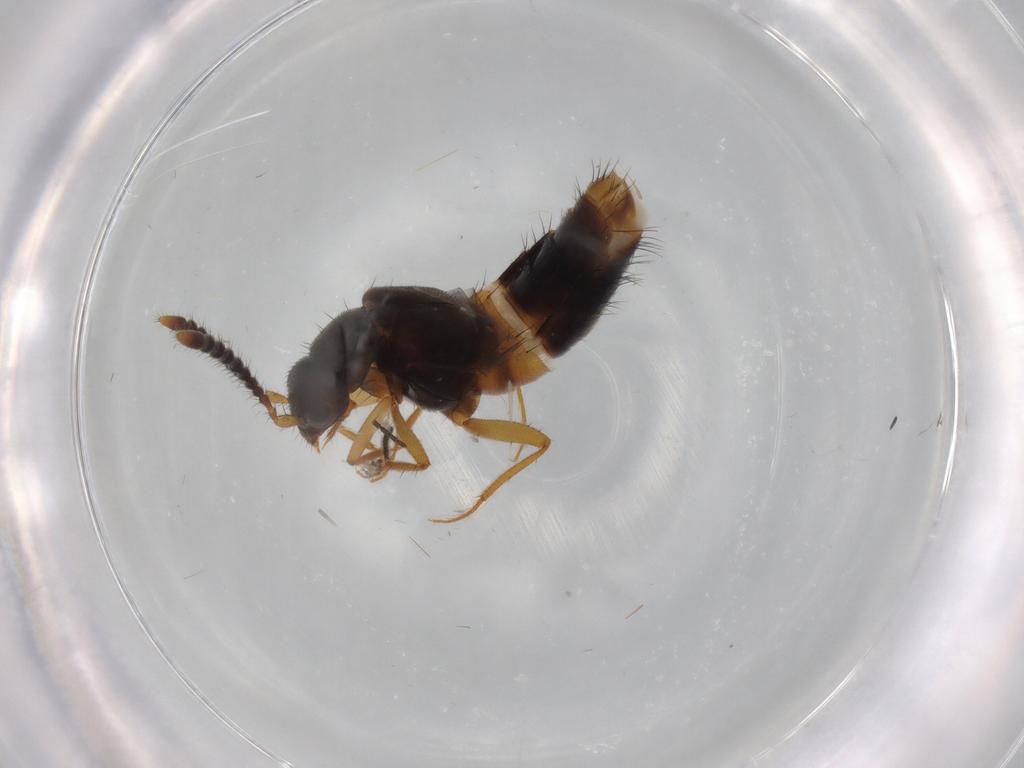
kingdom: Animalia
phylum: Arthropoda
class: Insecta
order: Coleoptera
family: Staphylinidae
